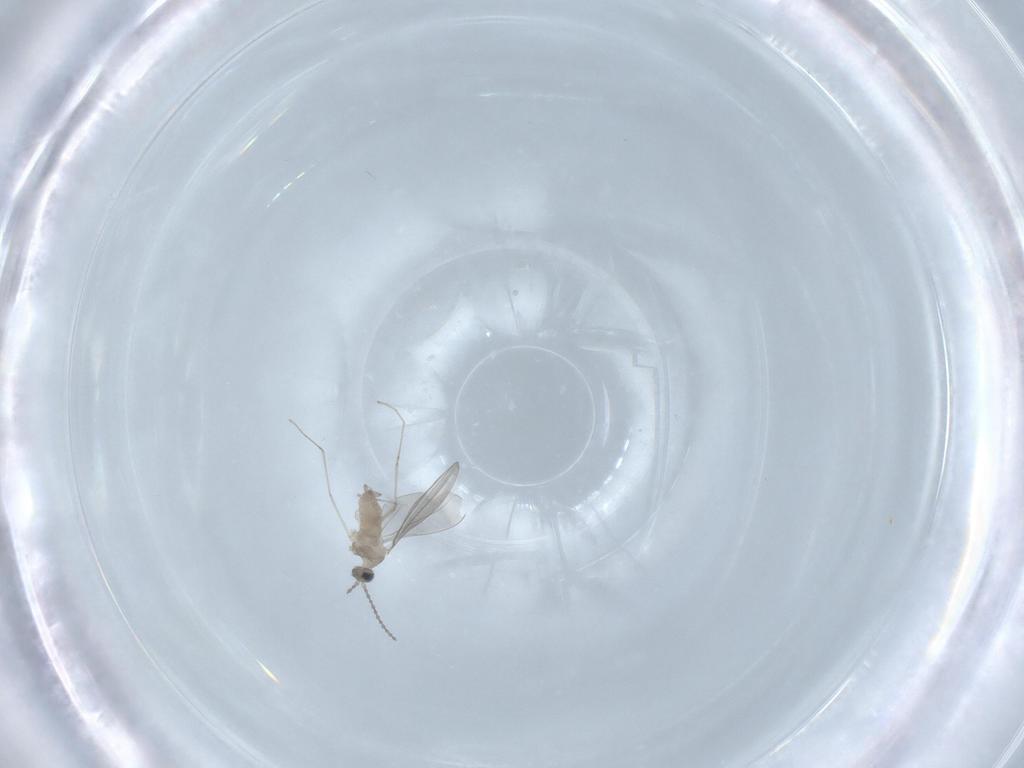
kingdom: Animalia
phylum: Arthropoda
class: Insecta
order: Diptera
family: Cecidomyiidae
